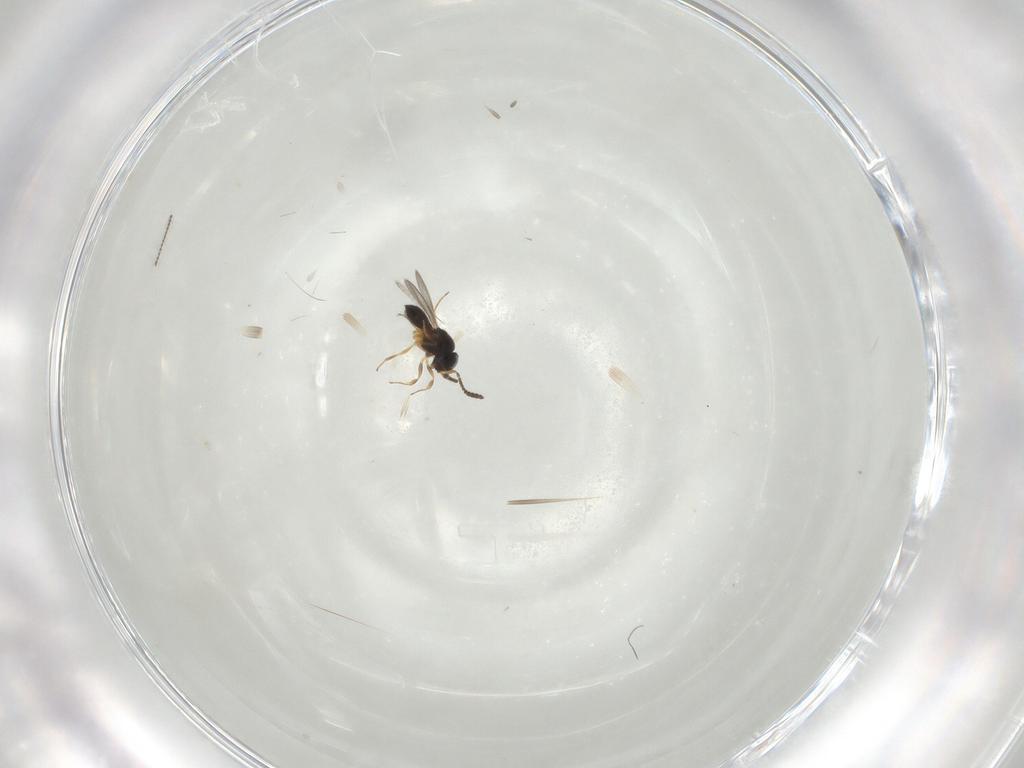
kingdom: Animalia
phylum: Arthropoda
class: Insecta
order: Hymenoptera
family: Scelionidae
